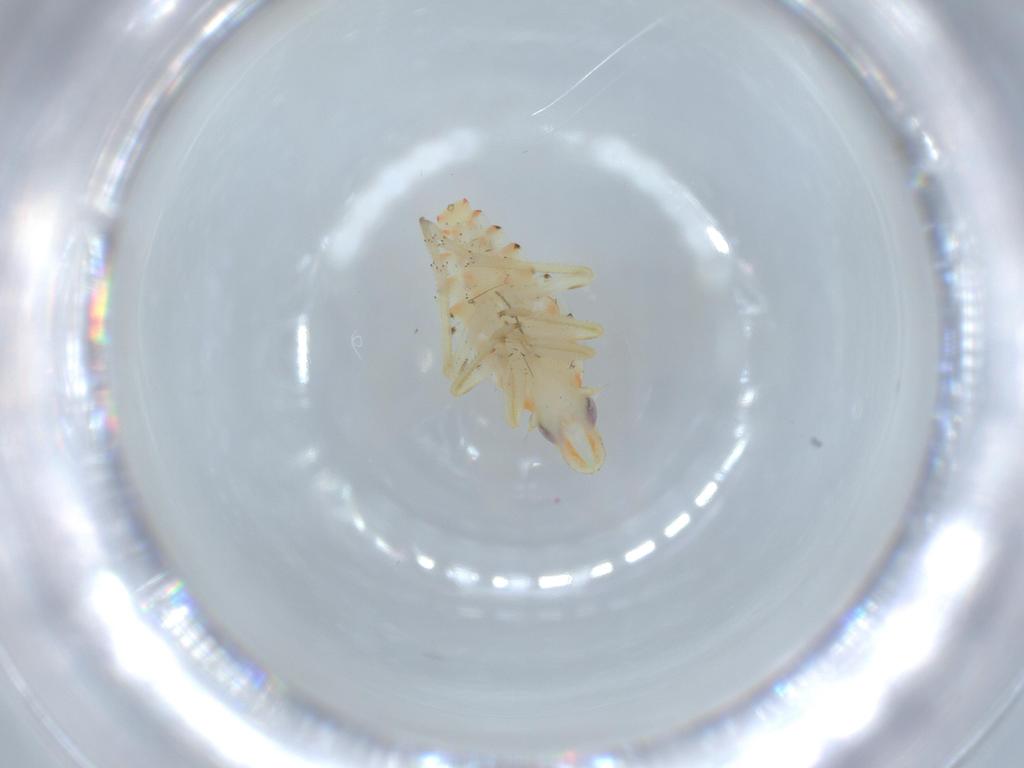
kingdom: Animalia
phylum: Arthropoda
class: Insecta
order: Hemiptera
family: Tropiduchidae
